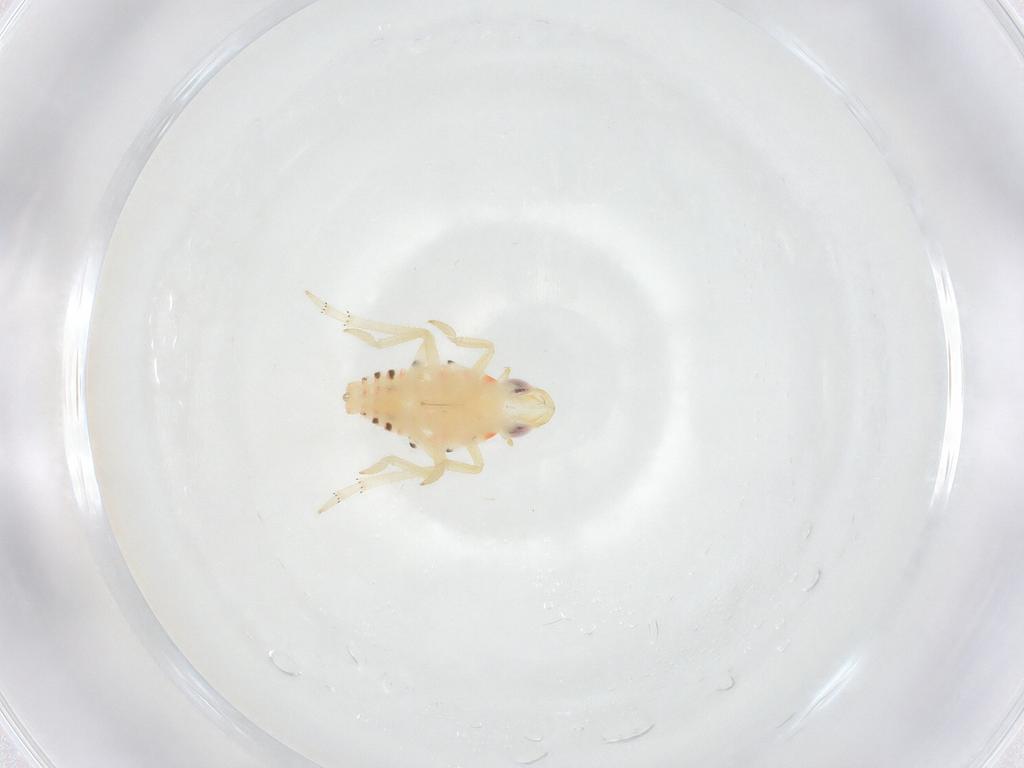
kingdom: Animalia
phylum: Arthropoda
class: Insecta
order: Hemiptera
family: Tropiduchidae
